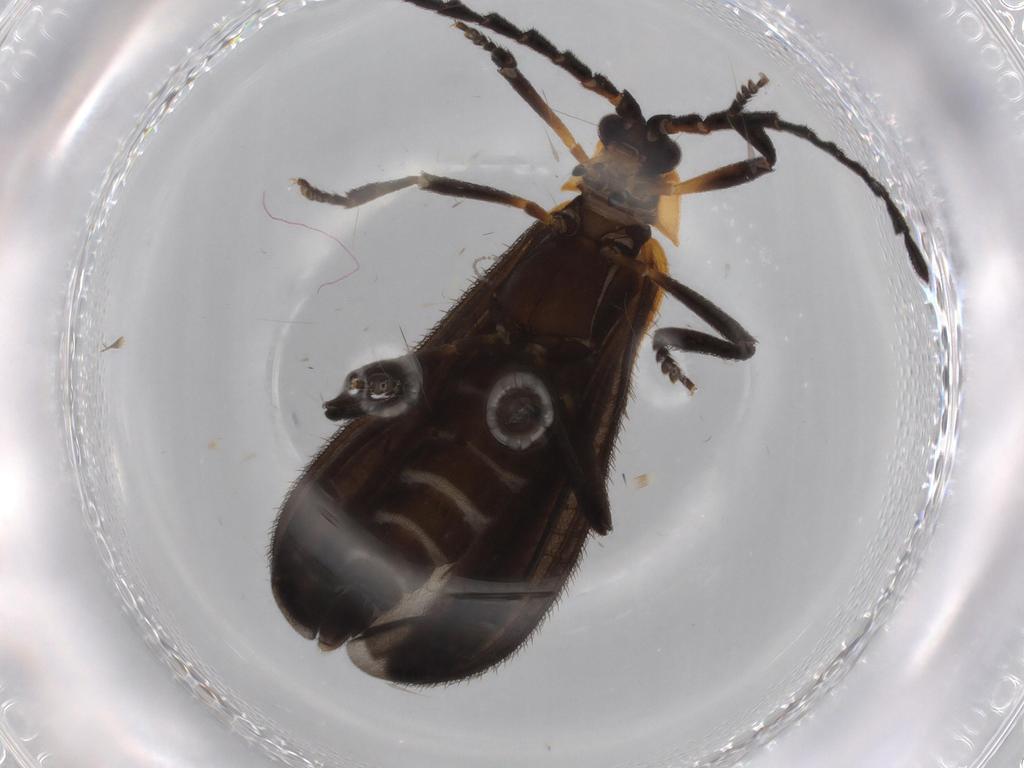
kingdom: Animalia
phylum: Arthropoda
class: Insecta
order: Coleoptera
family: Lycidae
